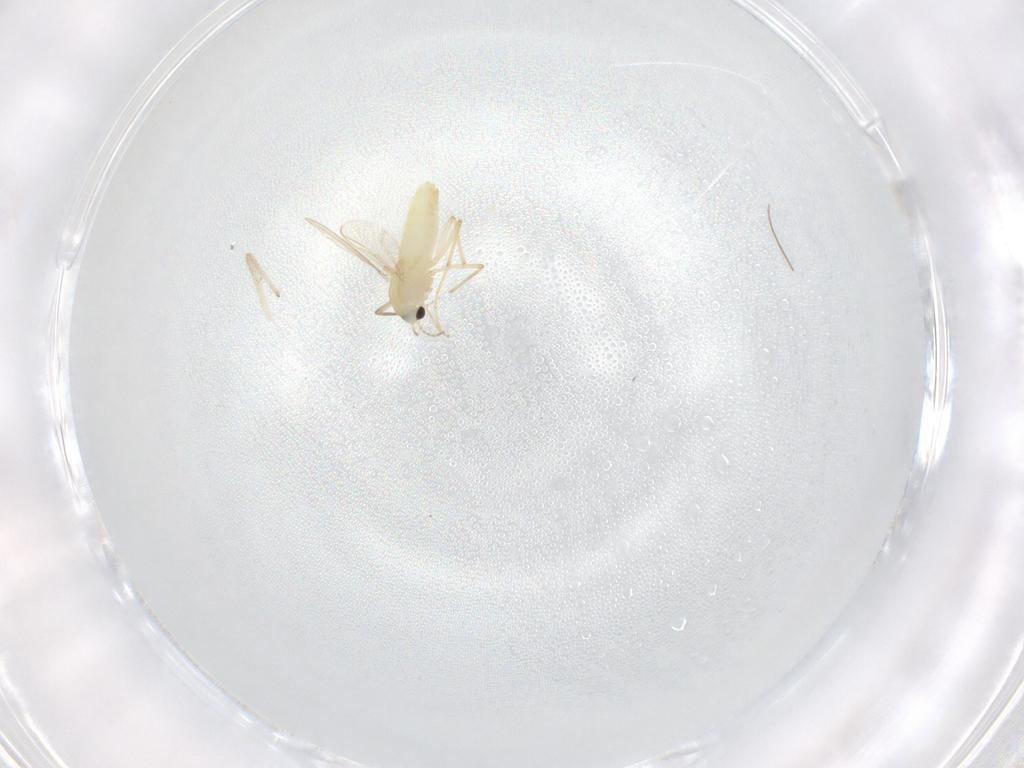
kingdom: Animalia
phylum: Arthropoda
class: Insecta
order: Diptera
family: Chironomidae
